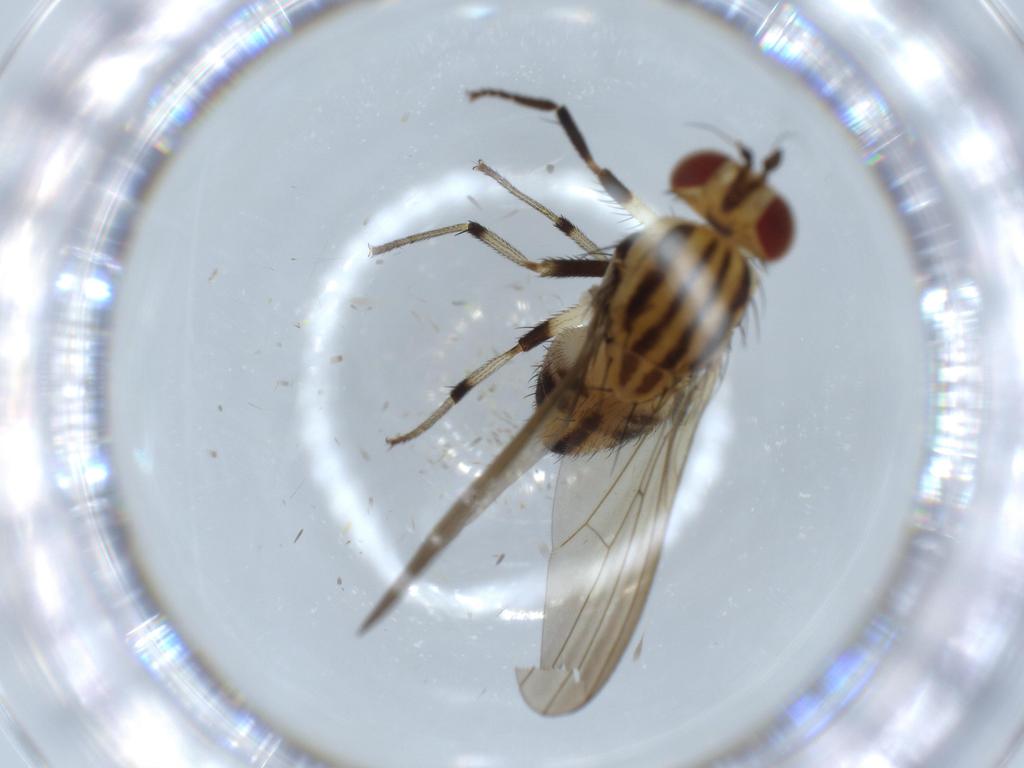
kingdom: Animalia
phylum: Arthropoda
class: Insecta
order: Diptera
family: Lauxaniidae
